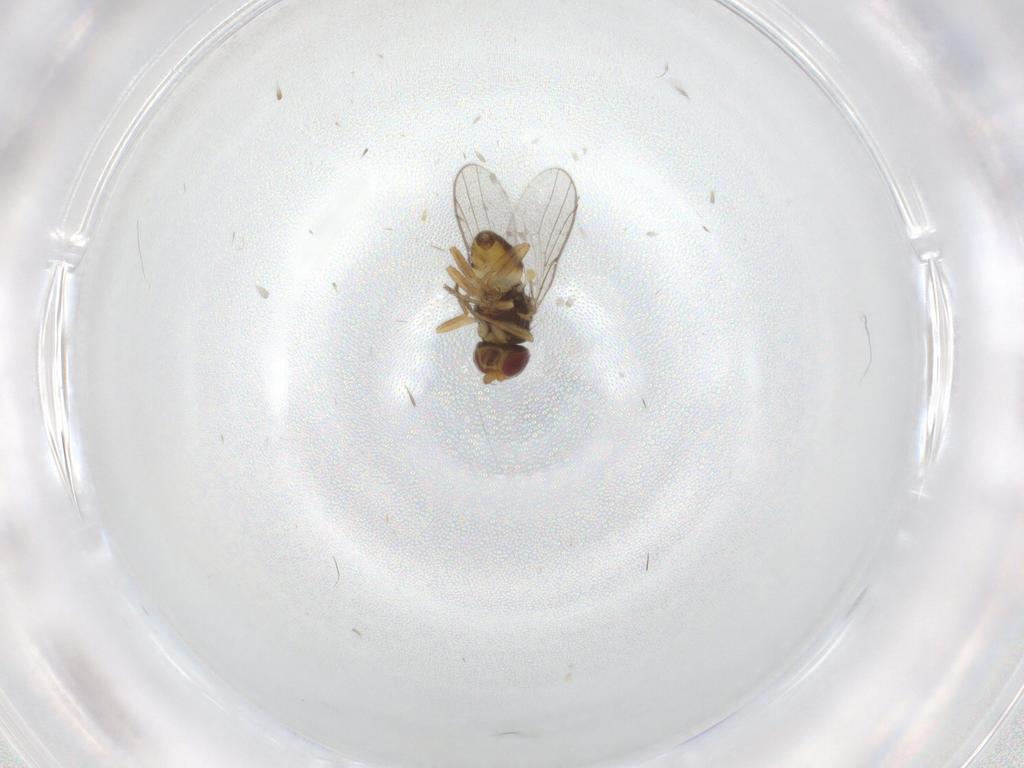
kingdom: Animalia
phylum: Arthropoda
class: Insecta
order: Diptera
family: Chloropidae
